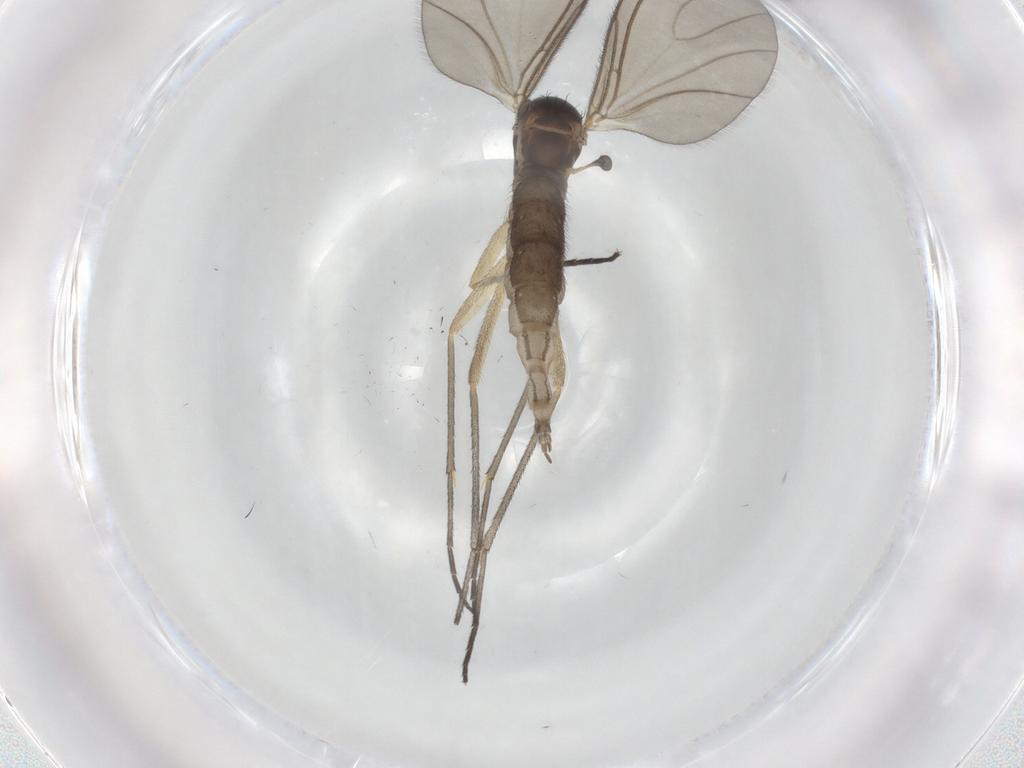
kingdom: Animalia
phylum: Arthropoda
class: Insecta
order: Diptera
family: Sciaridae
